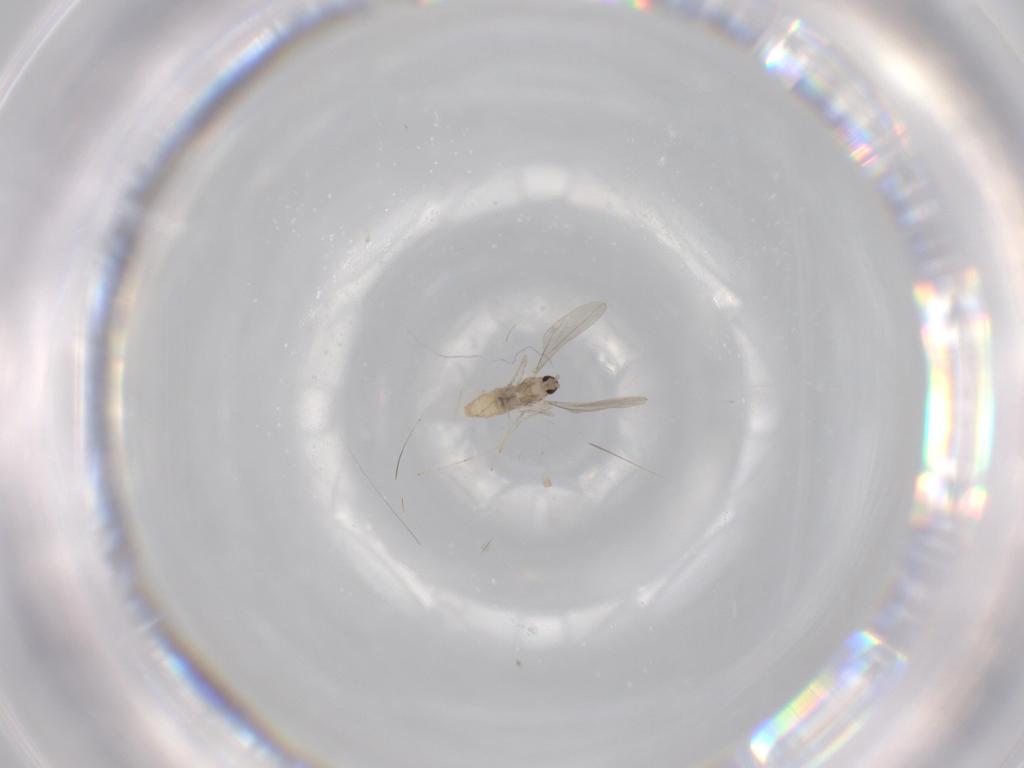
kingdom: Animalia
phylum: Arthropoda
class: Insecta
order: Diptera
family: Cecidomyiidae
